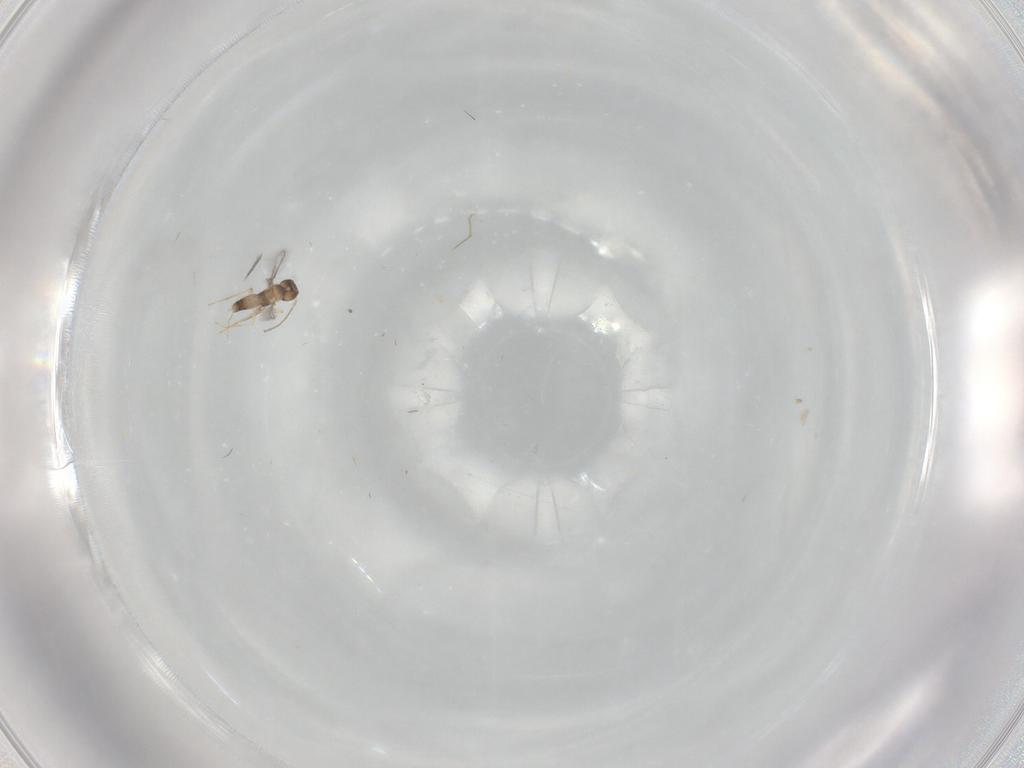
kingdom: Animalia
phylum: Arthropoda
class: Insecta
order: Hymenoptera
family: Mymaridae
